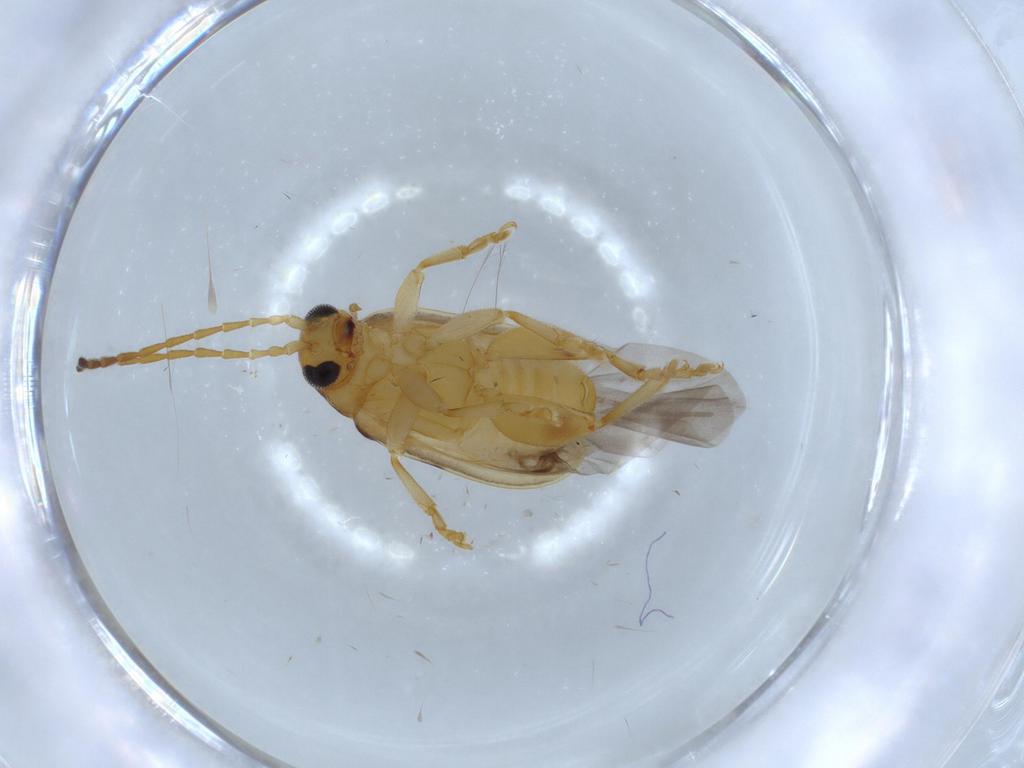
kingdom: Animalia
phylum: Arthropoda
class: Insecta
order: Coleoptera
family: Chrysomelidae
